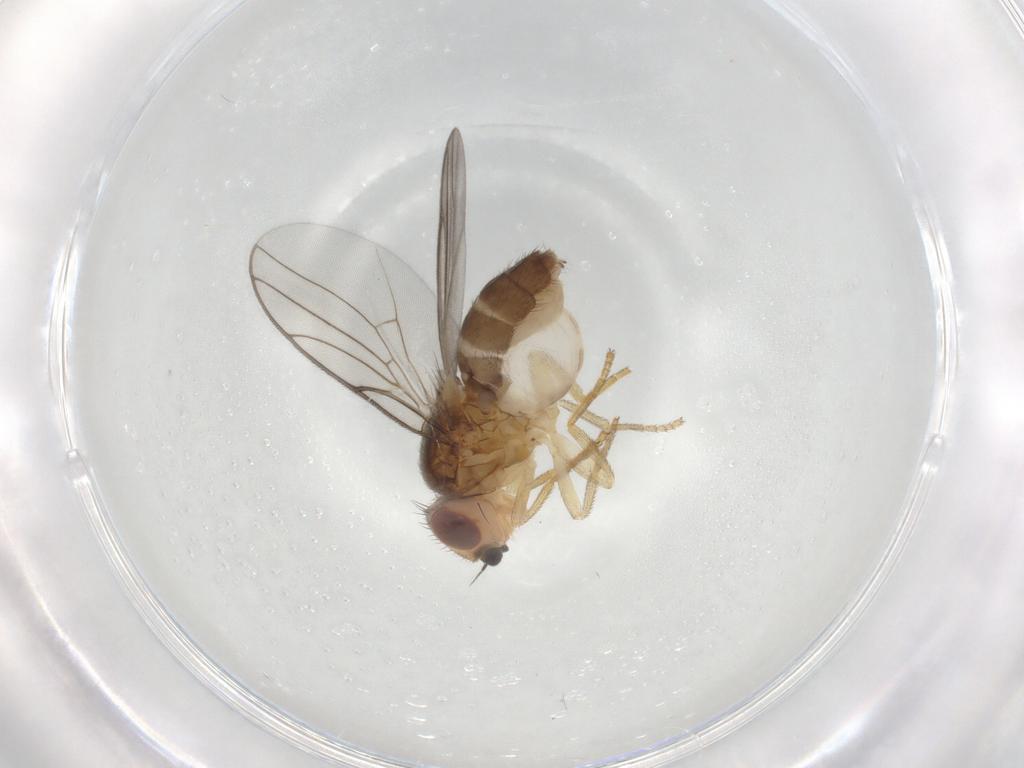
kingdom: Animalia
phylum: Arthropoda
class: Insecta
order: Diptera
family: Chloropidae
